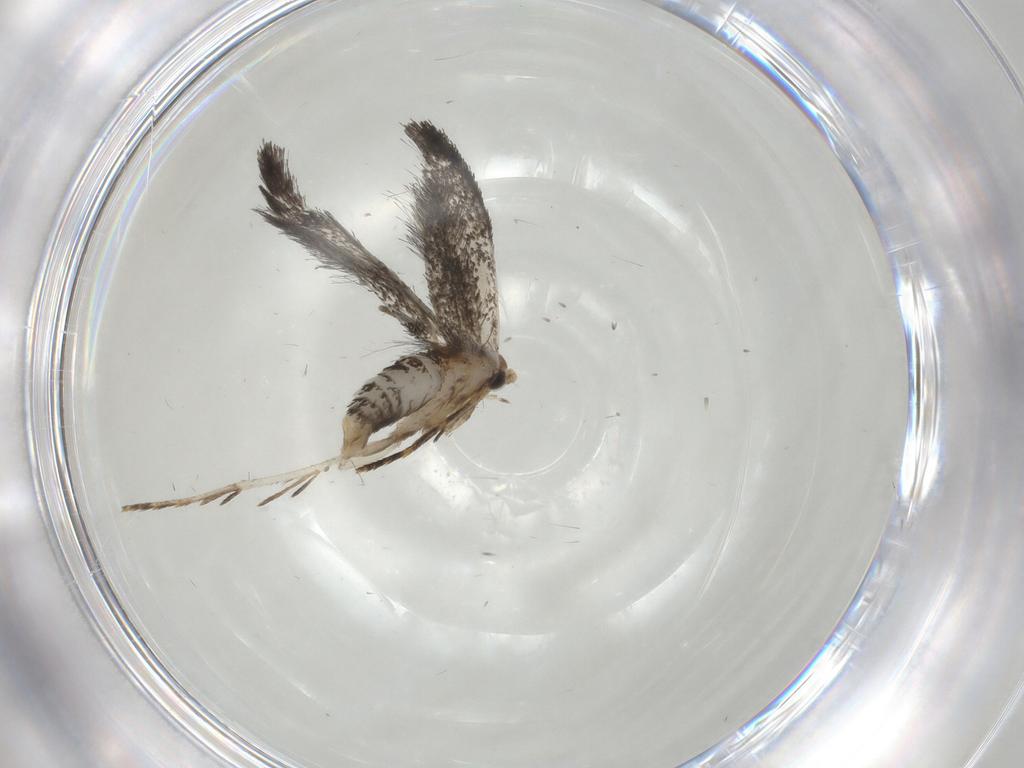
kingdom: Animalia
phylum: Arthropoda
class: Insecta
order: Lepidoptera
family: Tineidae
